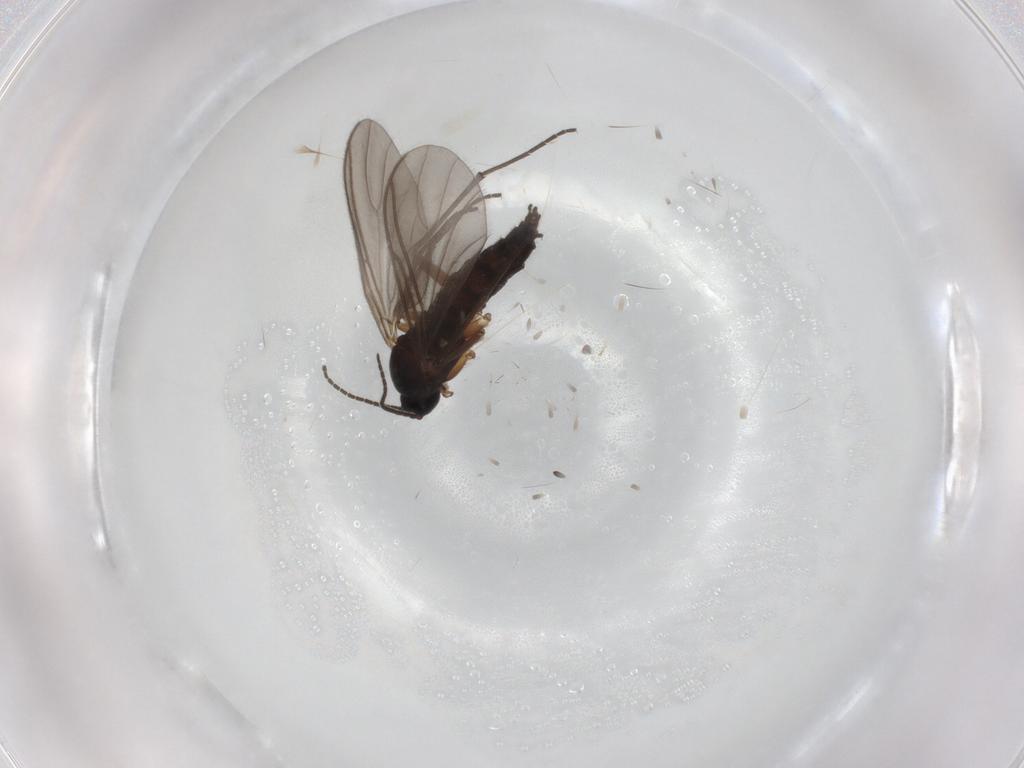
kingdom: Animalia
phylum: Arthropoda
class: Insecta
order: Diptera
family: Sciaridae
